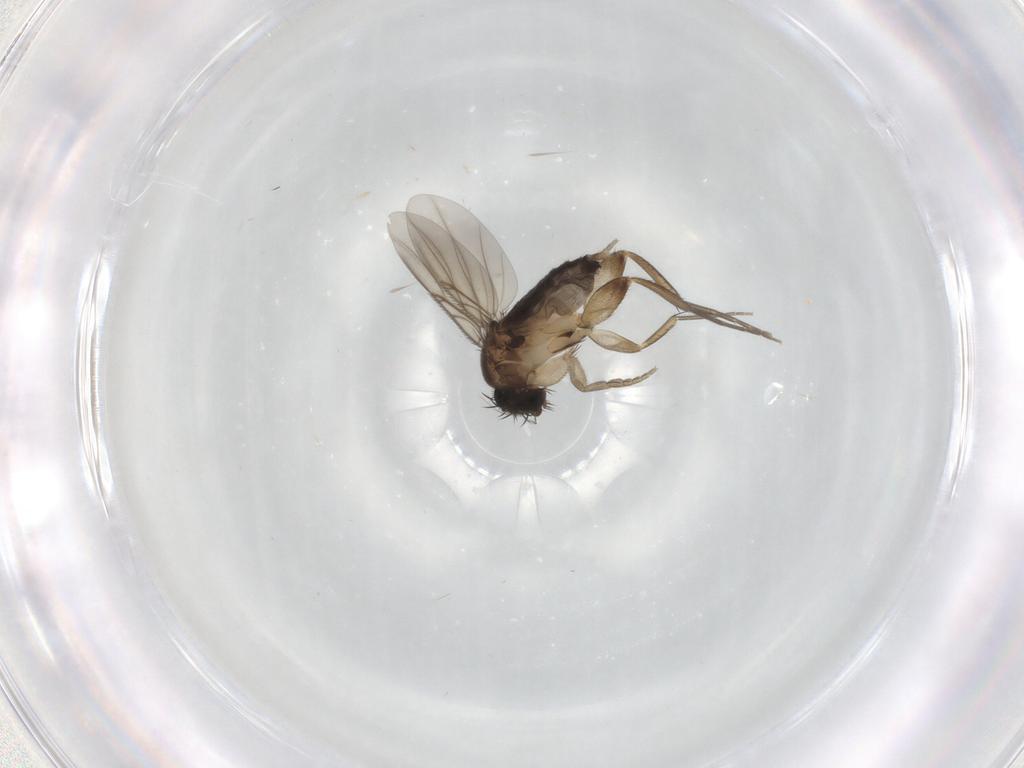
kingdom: Animalia
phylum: Arthropoda
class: Insecta
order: Diptera
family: Phoridae
